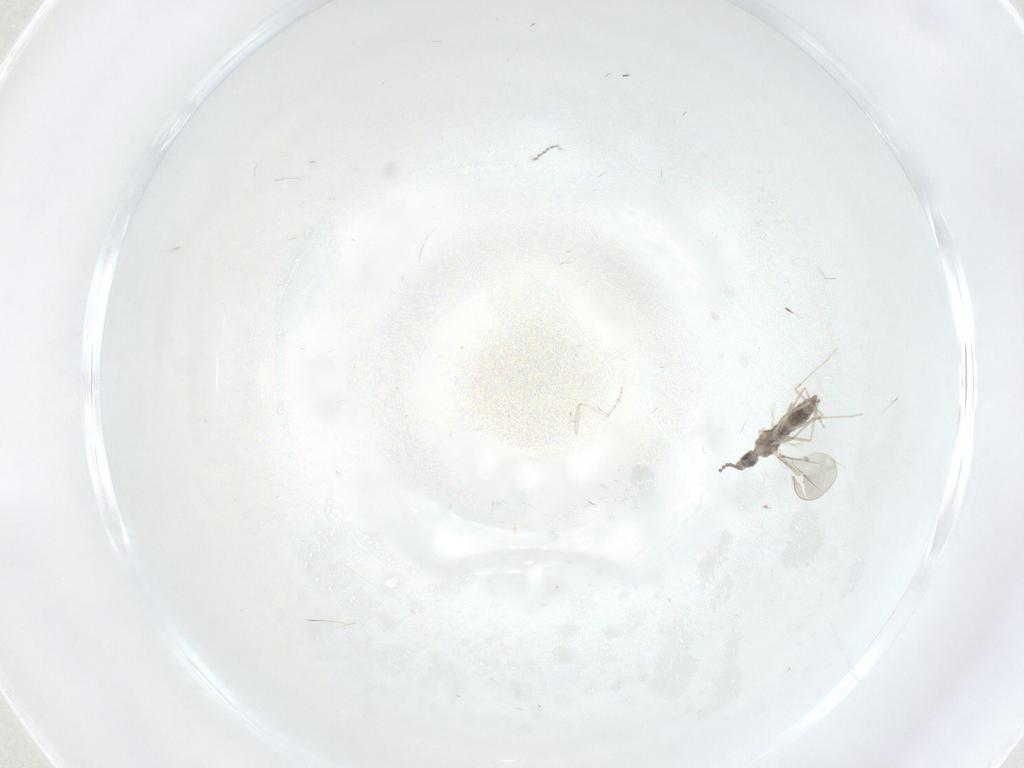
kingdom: Animalia
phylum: Arthropoda
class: Insecta
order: Diptera
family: Cecidomyiidae
